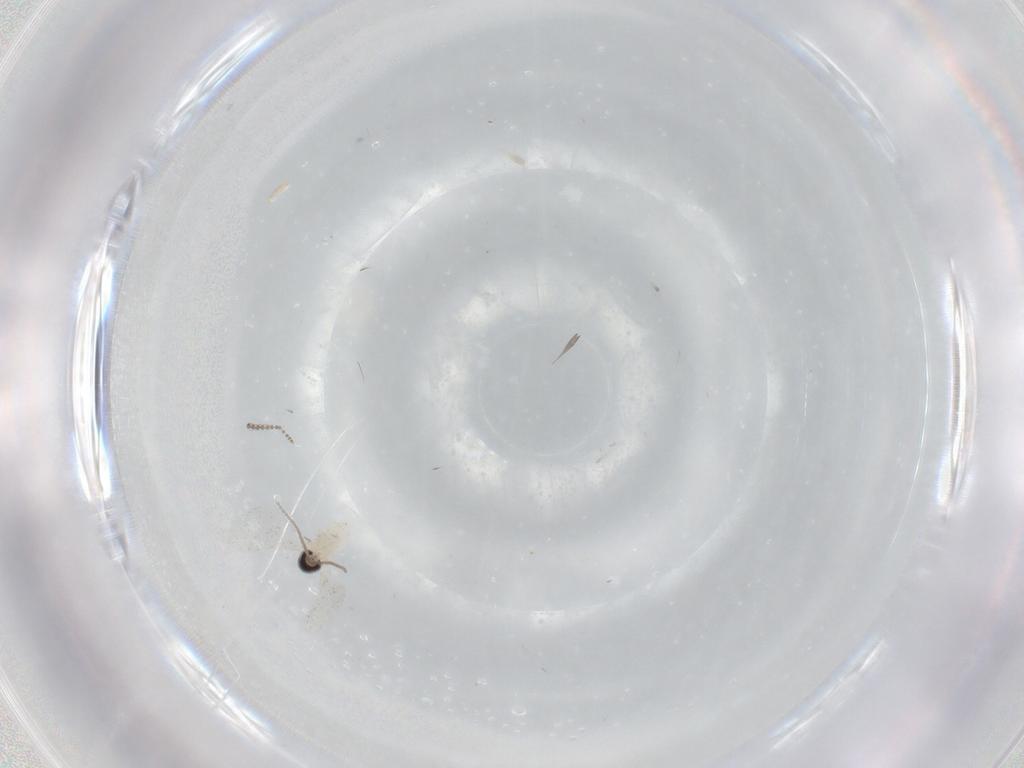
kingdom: Animalia
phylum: Arthropoda
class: Insecta
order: Diptera
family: Cecidomyiidae
